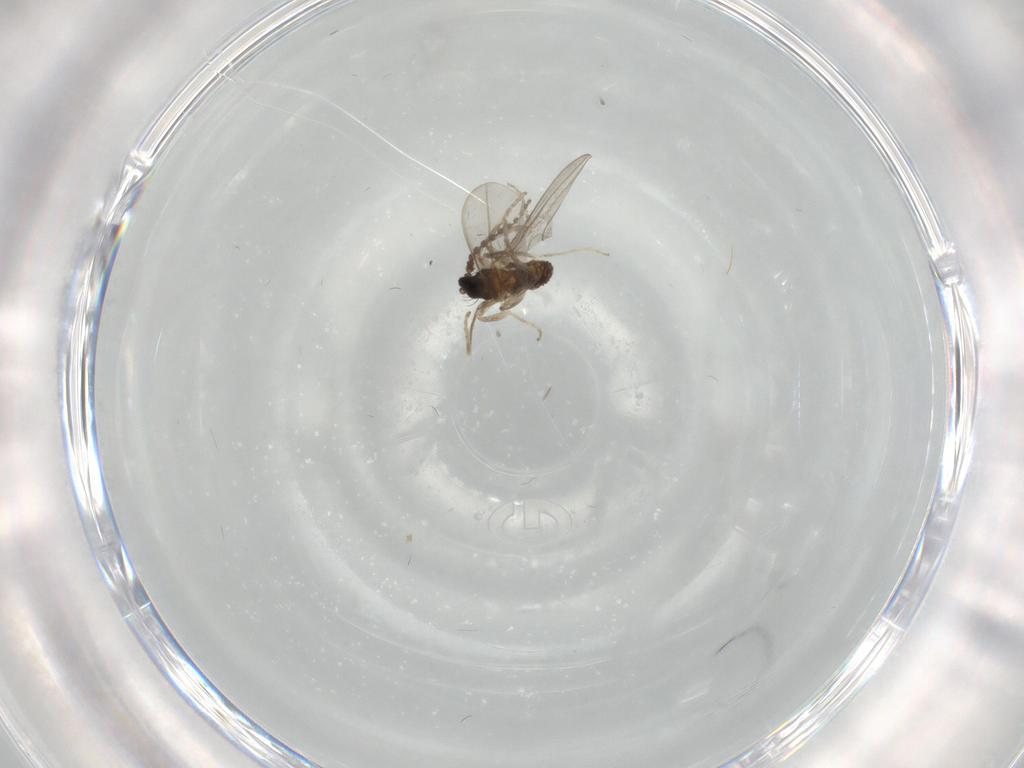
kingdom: Animalia
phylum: Arthropoda
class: Insecta
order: Diptera
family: Cecidomyiidae
